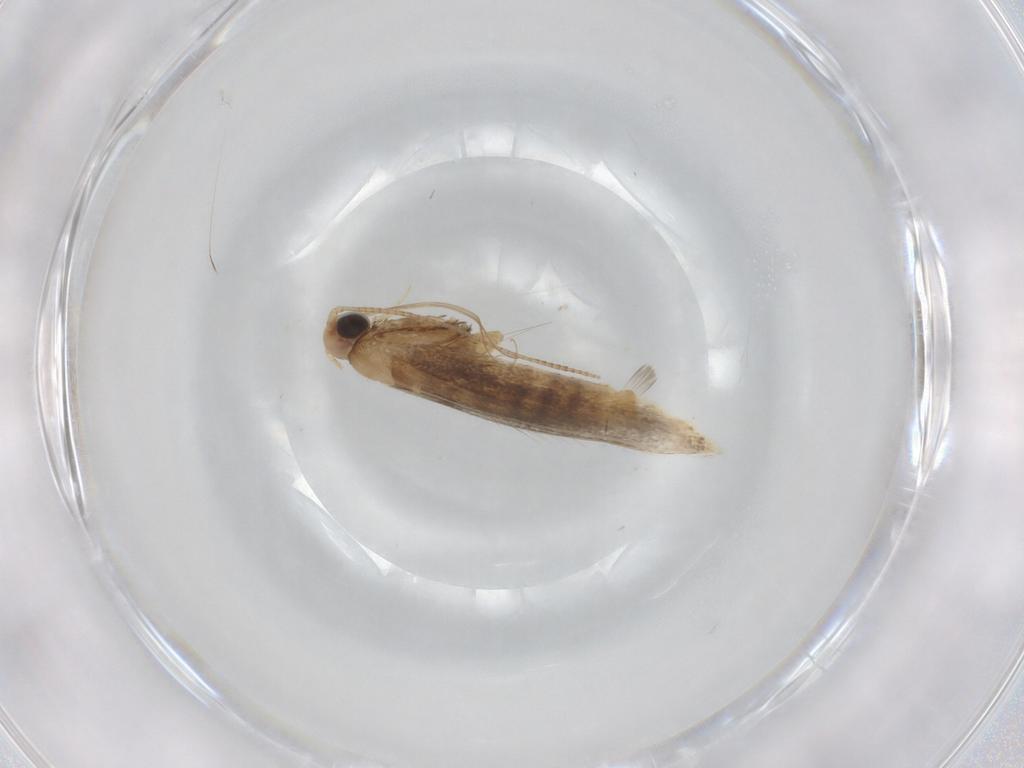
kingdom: Animalia
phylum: Arthropoda
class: Insecta
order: Lepidoptera
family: Gracillariidae
